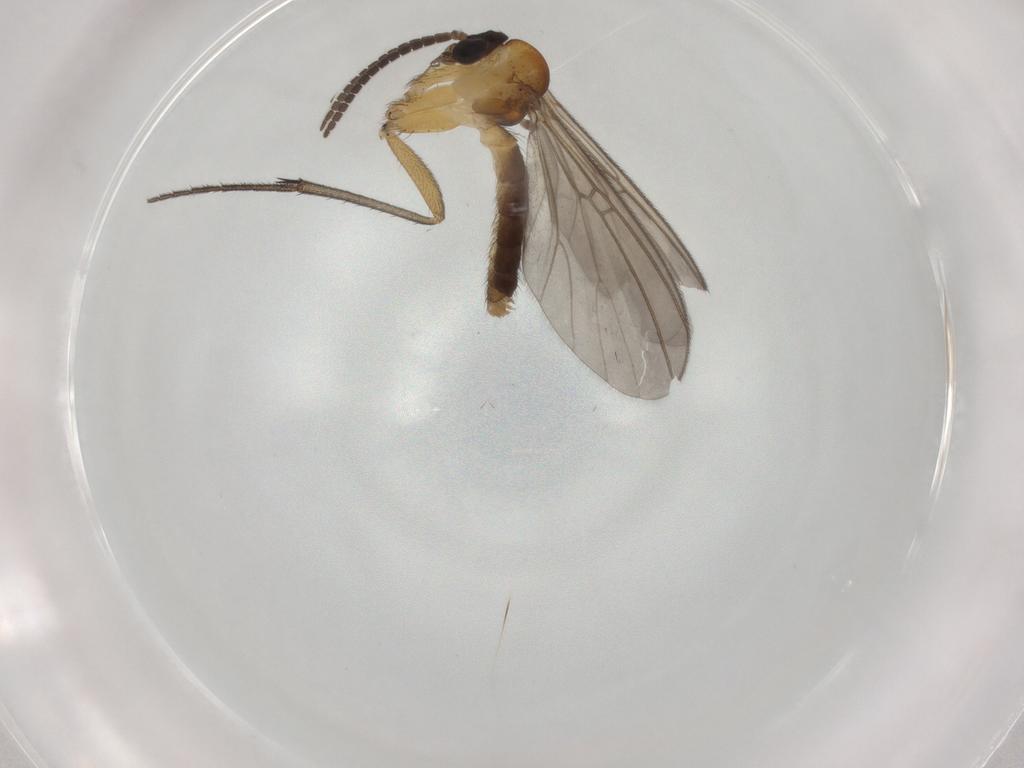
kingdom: Animalia
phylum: Arthropoda
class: Insecta
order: Diptera
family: Mycetophilidae
